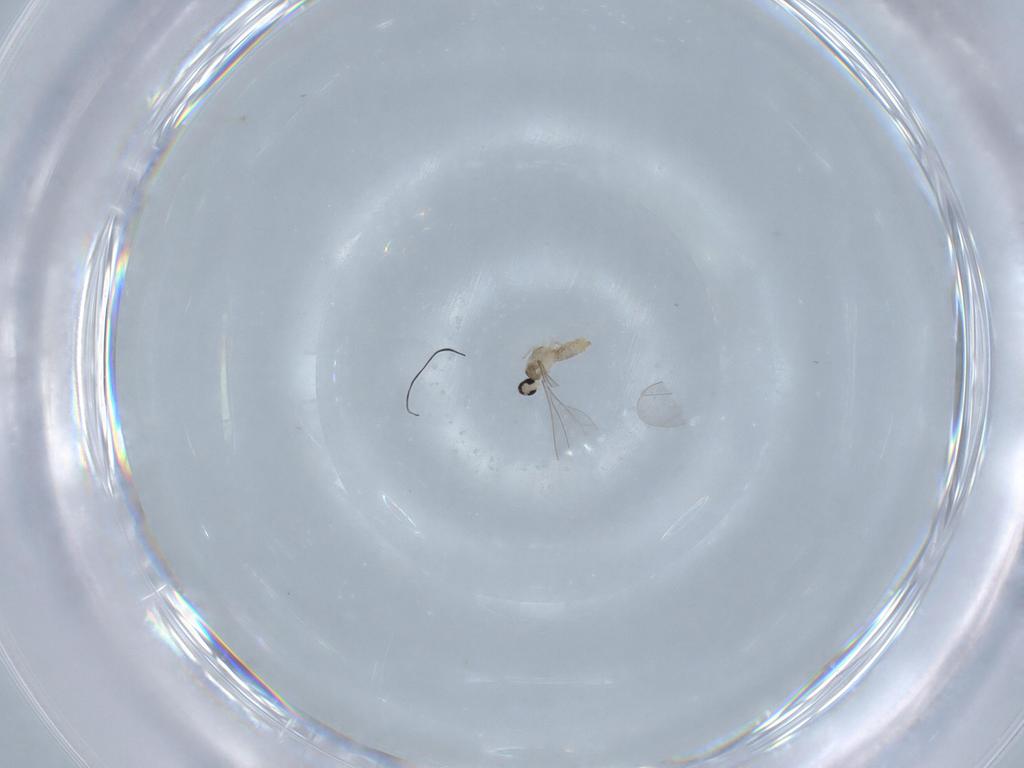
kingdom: Animalia
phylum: Arthropoda
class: Insecta
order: Diptera
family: Cecidomyiidae
